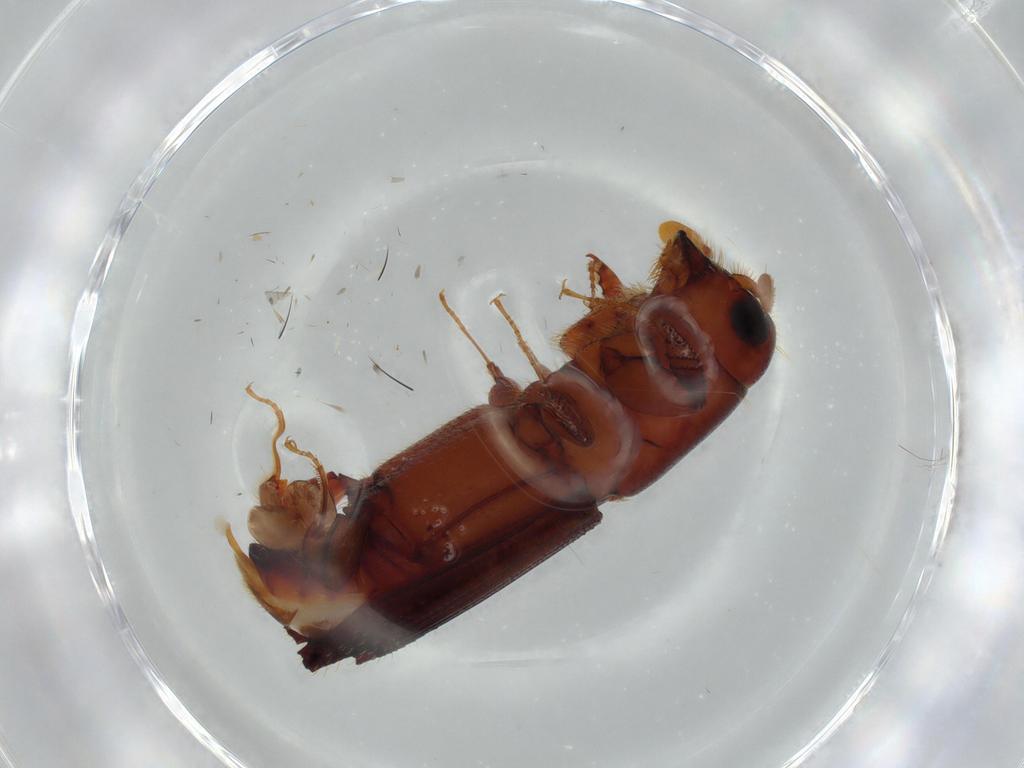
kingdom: Animalia
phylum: Arthropoda
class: Insecta
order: Coleoptera
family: Curculionidae
